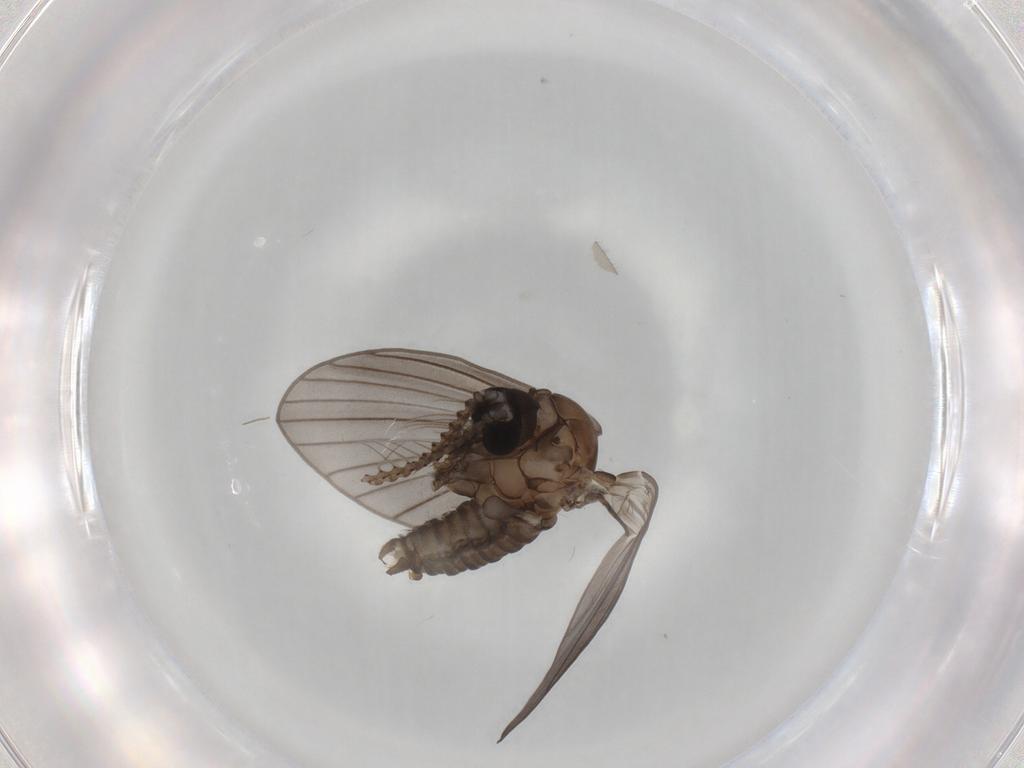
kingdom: Animalia
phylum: Arthropoda
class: Insecta
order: Diptera
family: Psychodidae
